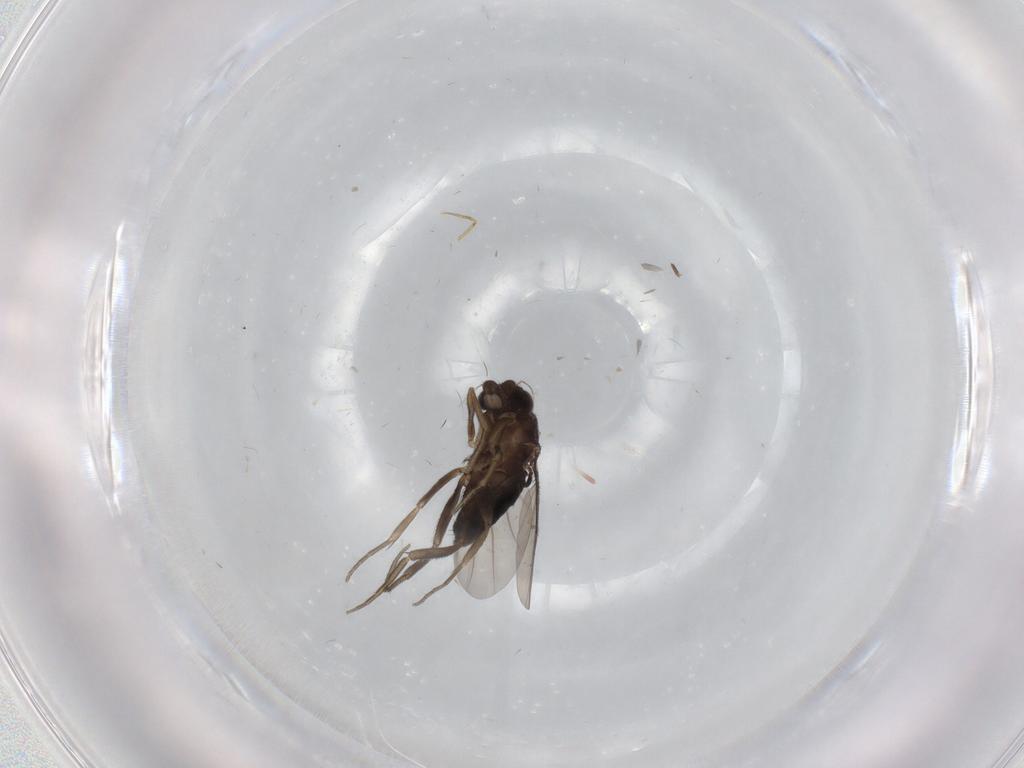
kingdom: Animalia
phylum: Arthropoda
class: Insecta
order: Diptera
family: Phoridae
